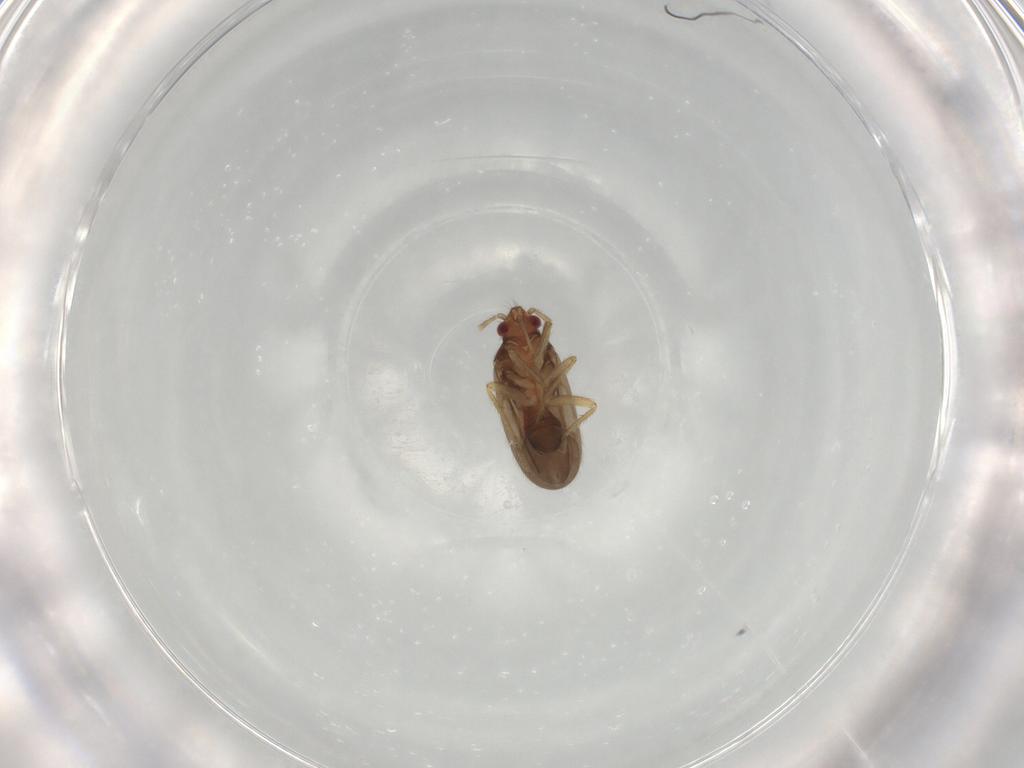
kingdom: Animalia
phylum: Arthropoda
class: Insecta
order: Hemiptera
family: Ceratocombidae
